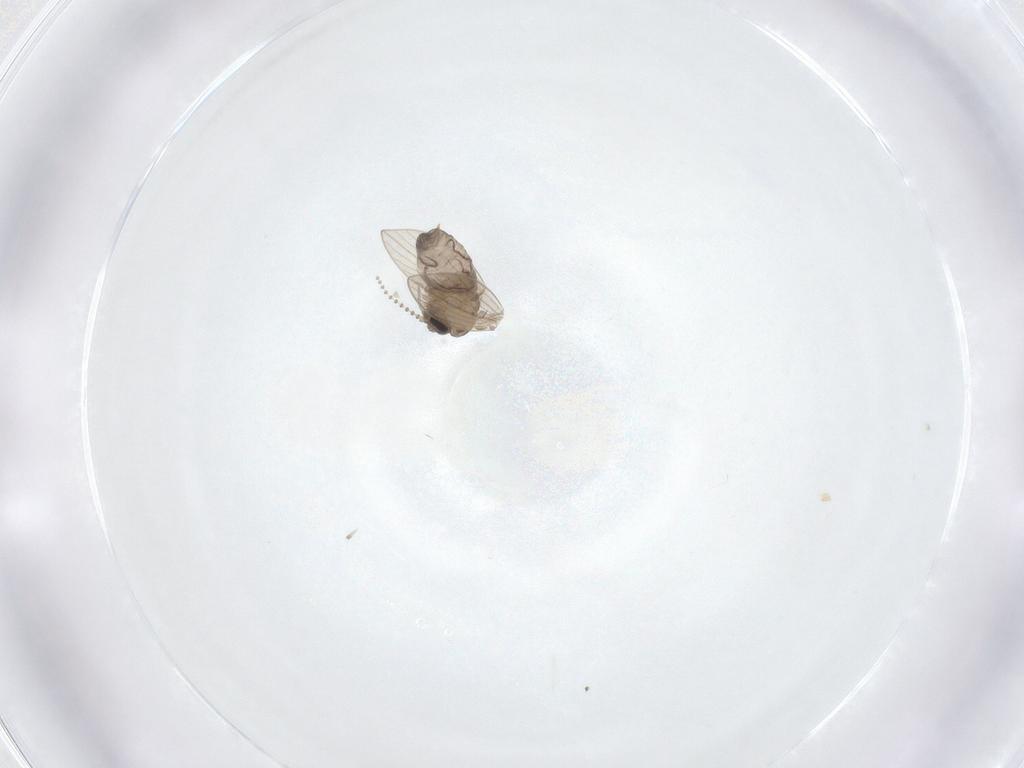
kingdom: Animalia
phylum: Arthropoda
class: Insecta
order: Diptera
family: Psychodidae
